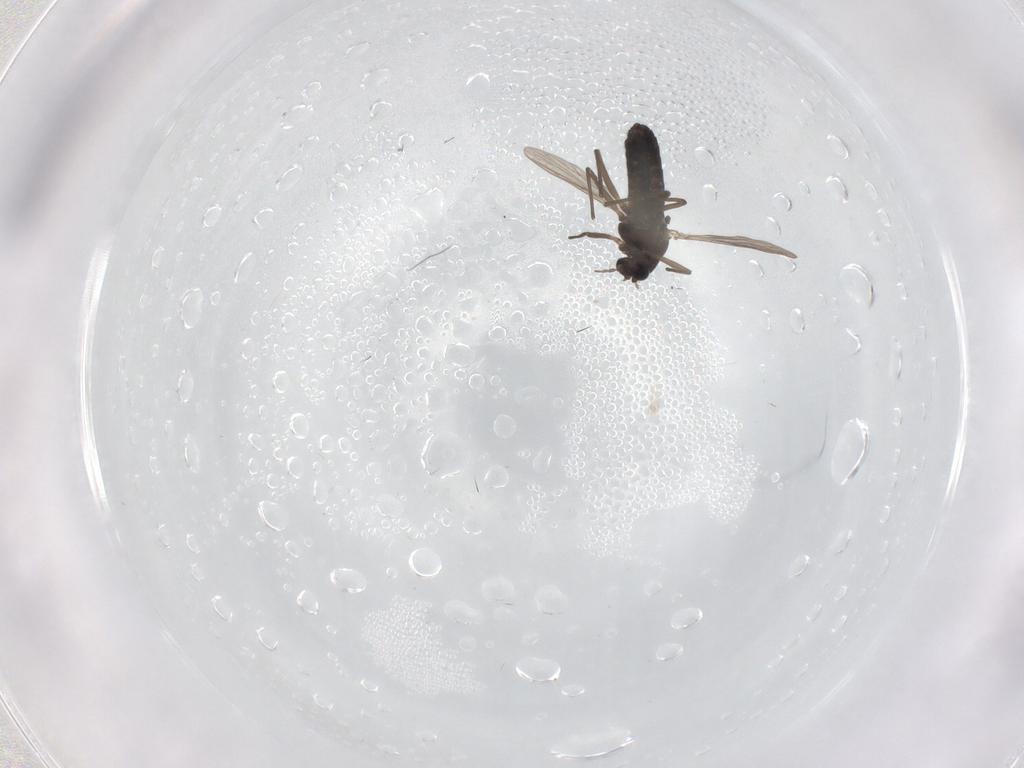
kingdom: Animalia
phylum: Arthropoda
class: Insecta
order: Diptera
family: Chironomidae
